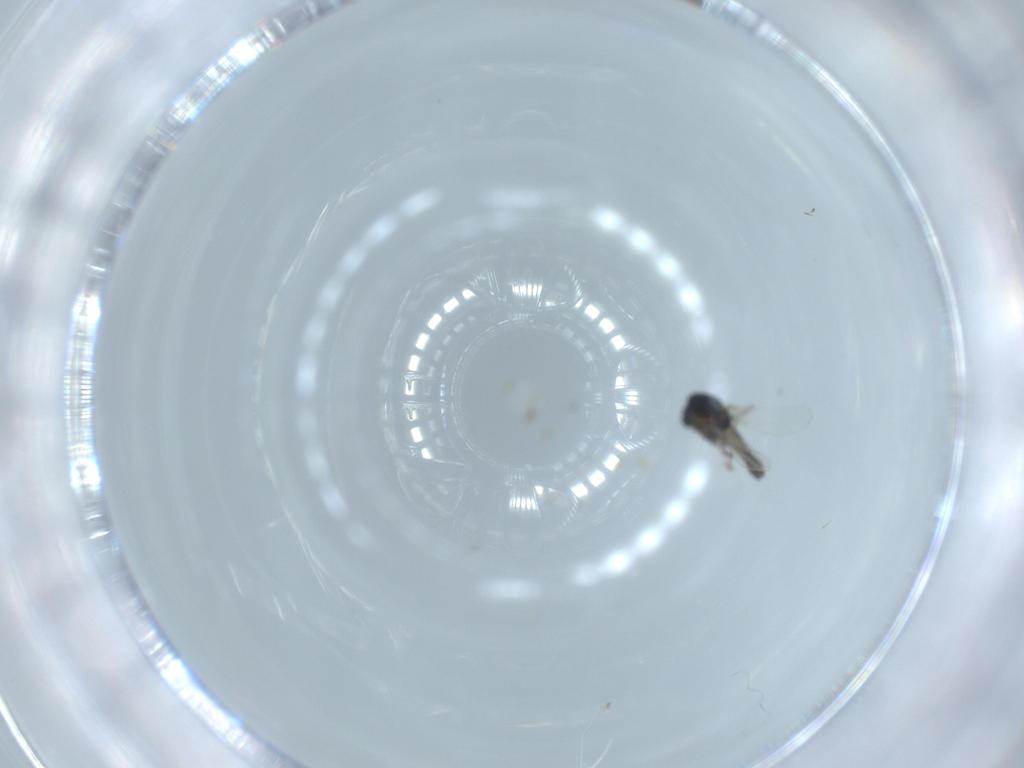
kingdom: Animalia
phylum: Arthropoda
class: Insecta
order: Diptera
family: Chironomidae
